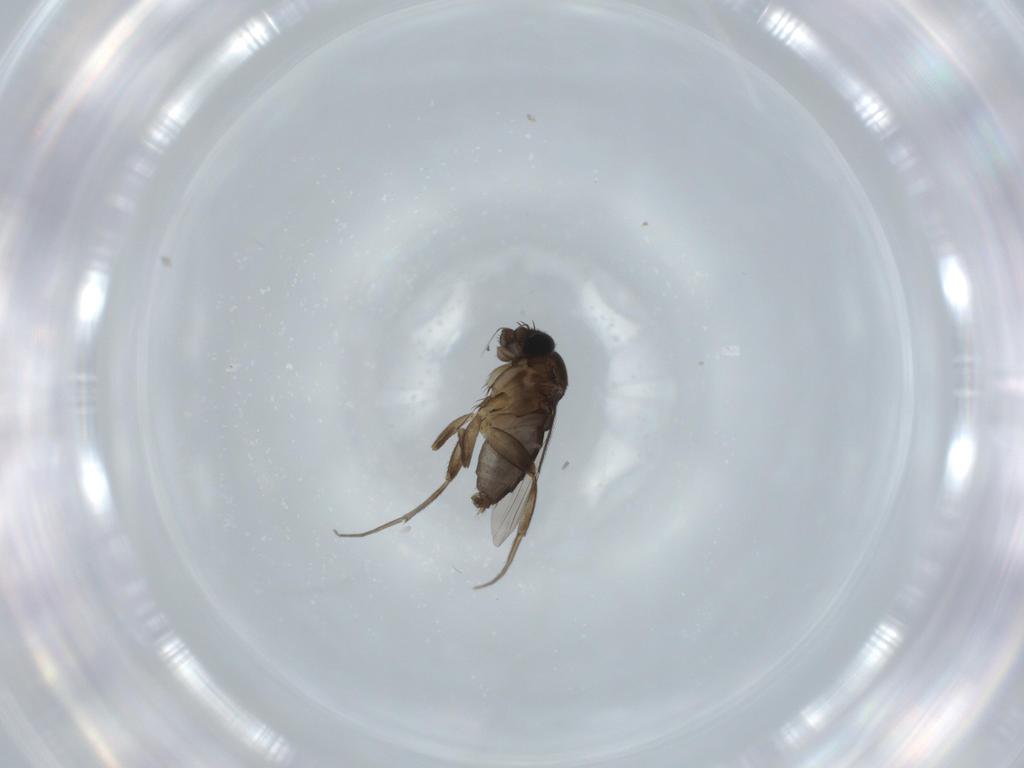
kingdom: Animalia
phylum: Arthropoda
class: Insecta
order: Diptera
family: Phoridae
